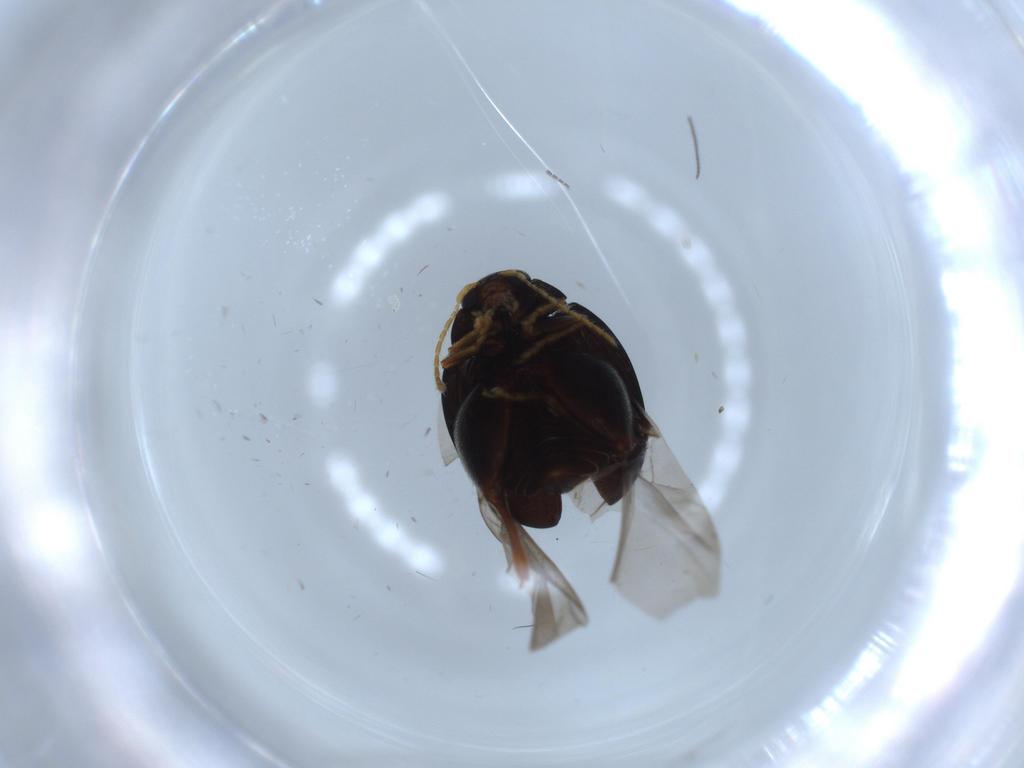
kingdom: Animalia
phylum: Arthropoda
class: Insecta
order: Coleoptera
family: Chrysomelidae
